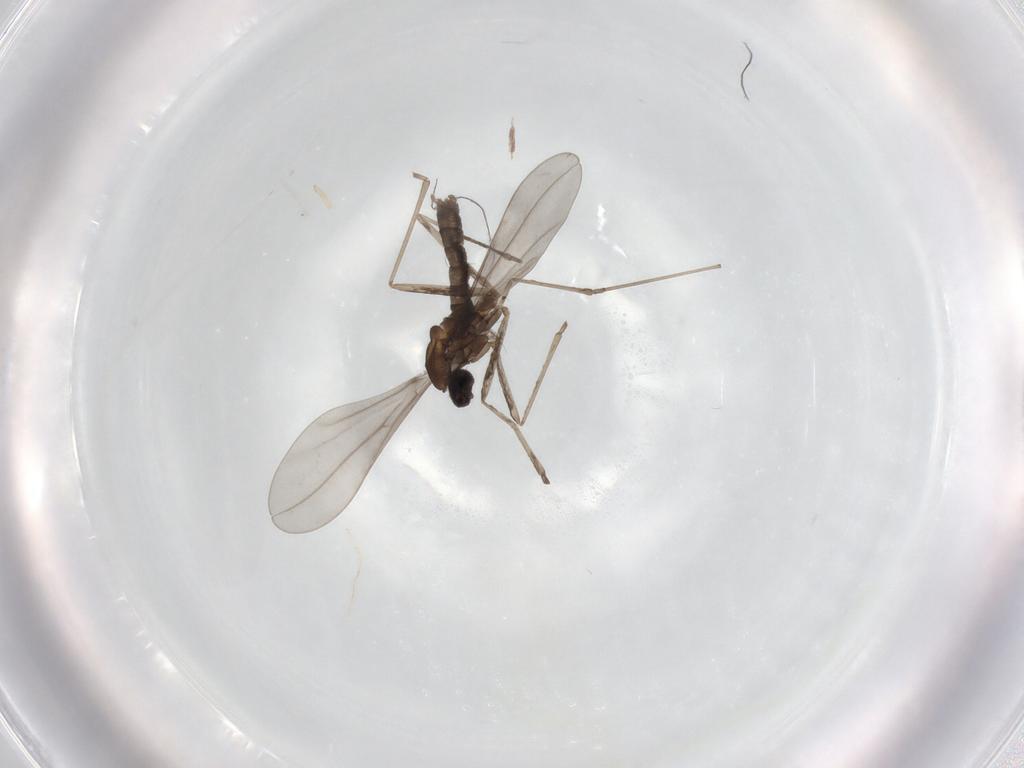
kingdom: Animalia
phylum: Arthropoda
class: Insecta
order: Diptera
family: Cecidomyiidae
